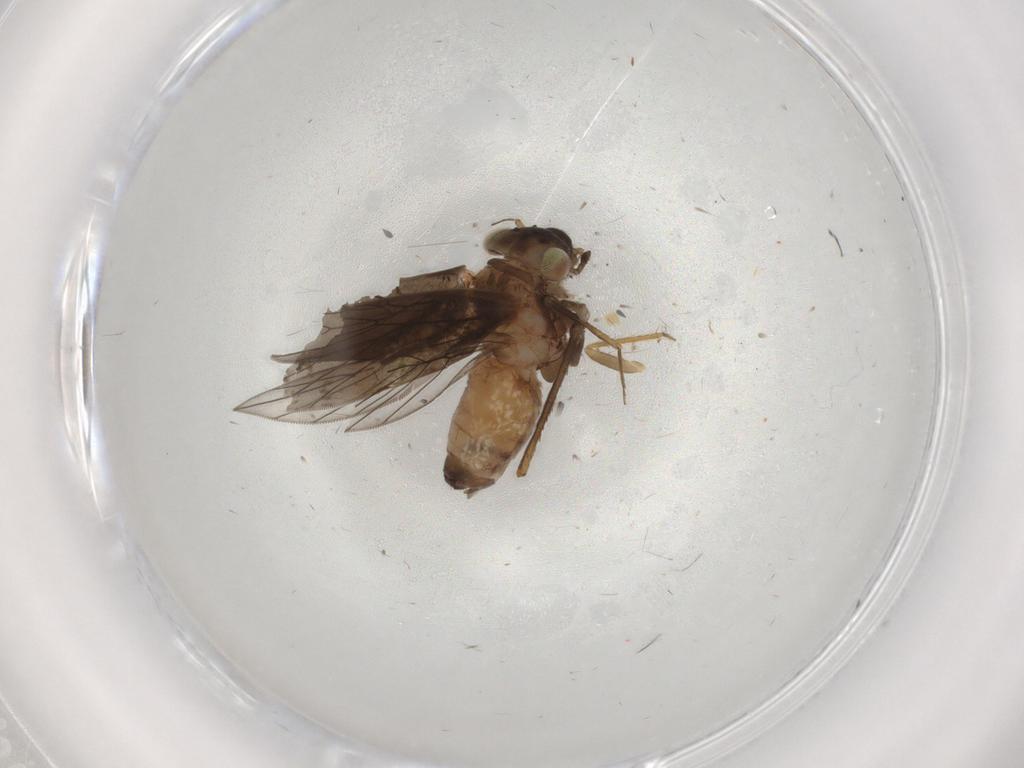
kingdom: Animalia
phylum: Arthropoda
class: Insecta
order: Psocodea
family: Lepidopsocidae
